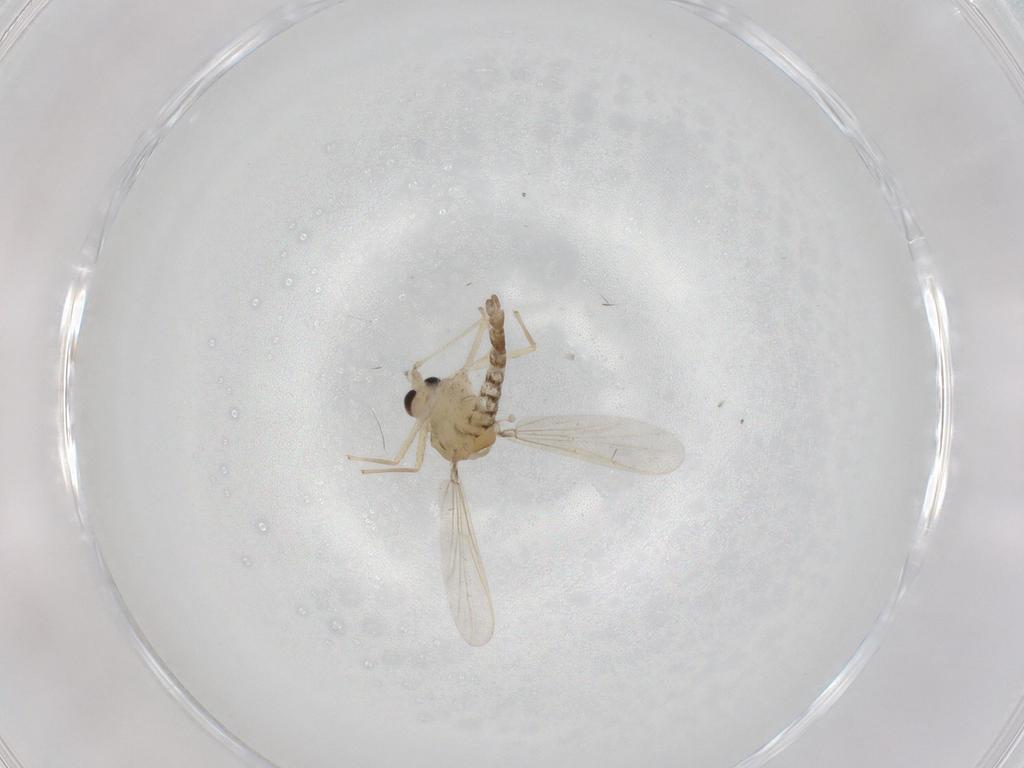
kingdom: Animalia
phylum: Arthropoda
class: Insecta
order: Diptera
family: Chironomidae
